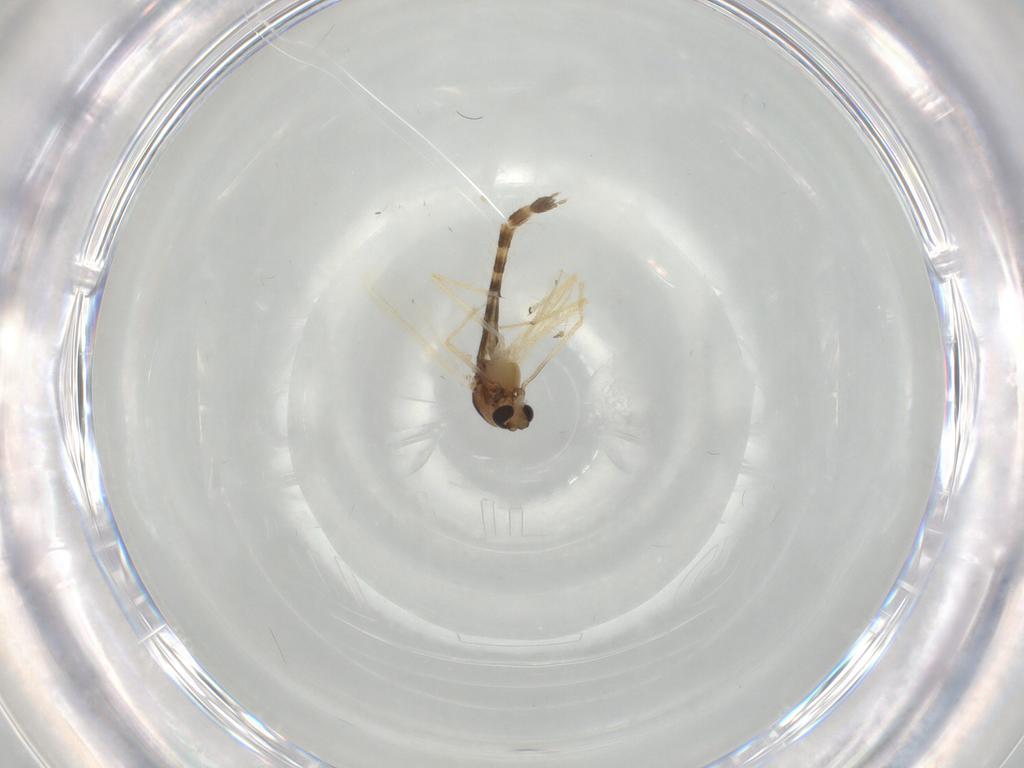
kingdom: Animalia
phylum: Arthropoda
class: Insecta
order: Diptera
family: Chironomidae
